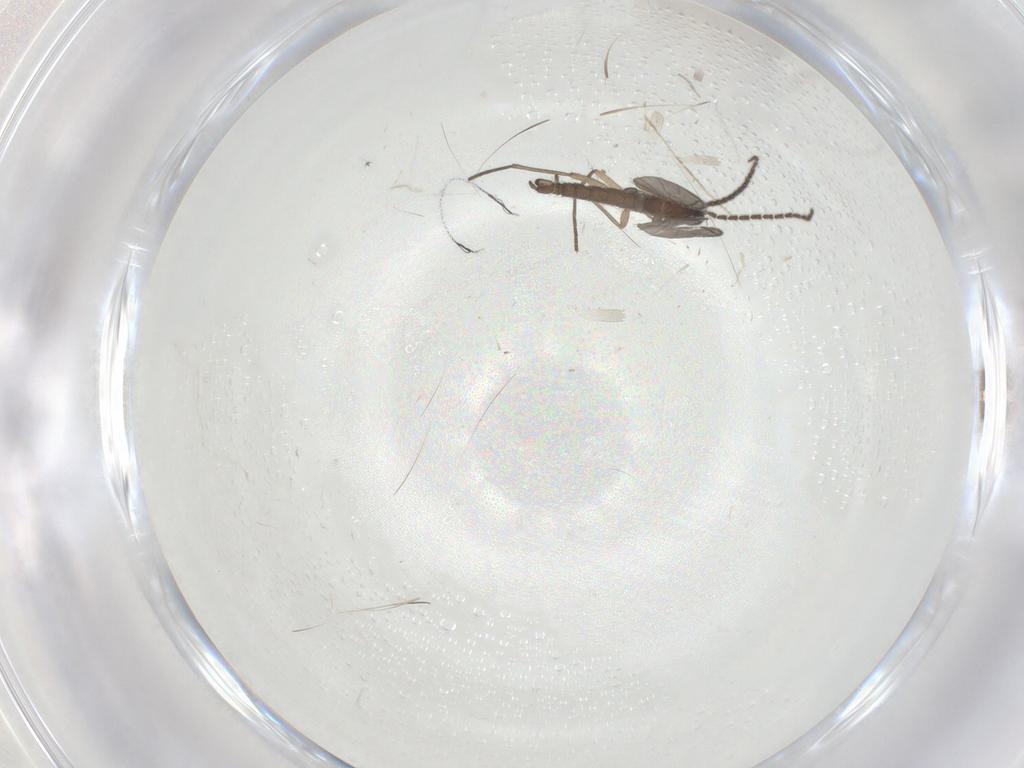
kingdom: Animalia
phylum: Arthropoda
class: Insecta
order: Diptera
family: Sciaridae
